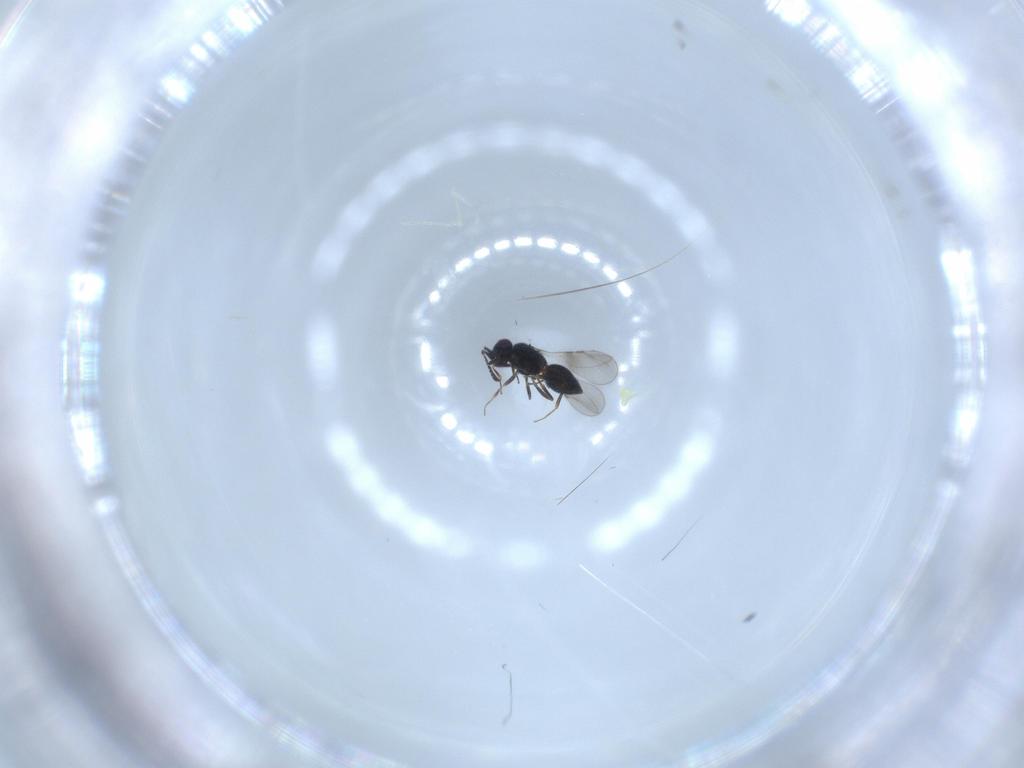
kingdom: Animalia
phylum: Arthropoda
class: Insecta
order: Hymenoptera
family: Ceraphronidae
